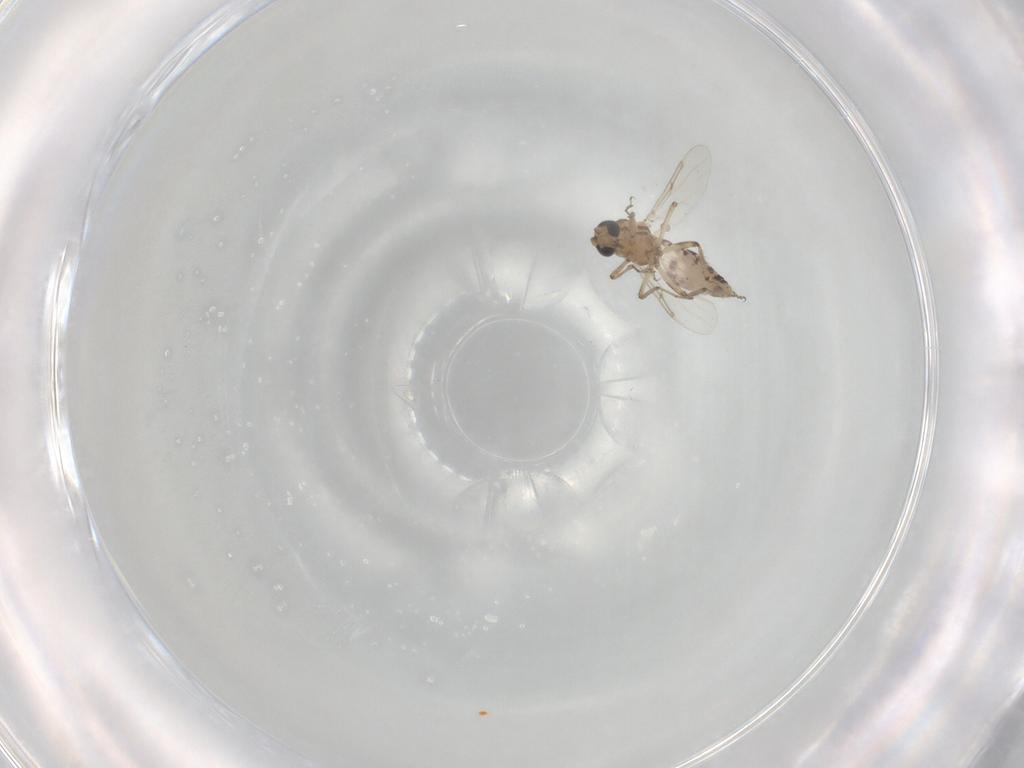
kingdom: Animalia
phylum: Arthropoda
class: Insecta
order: Diptera
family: Ceratopogonidae
